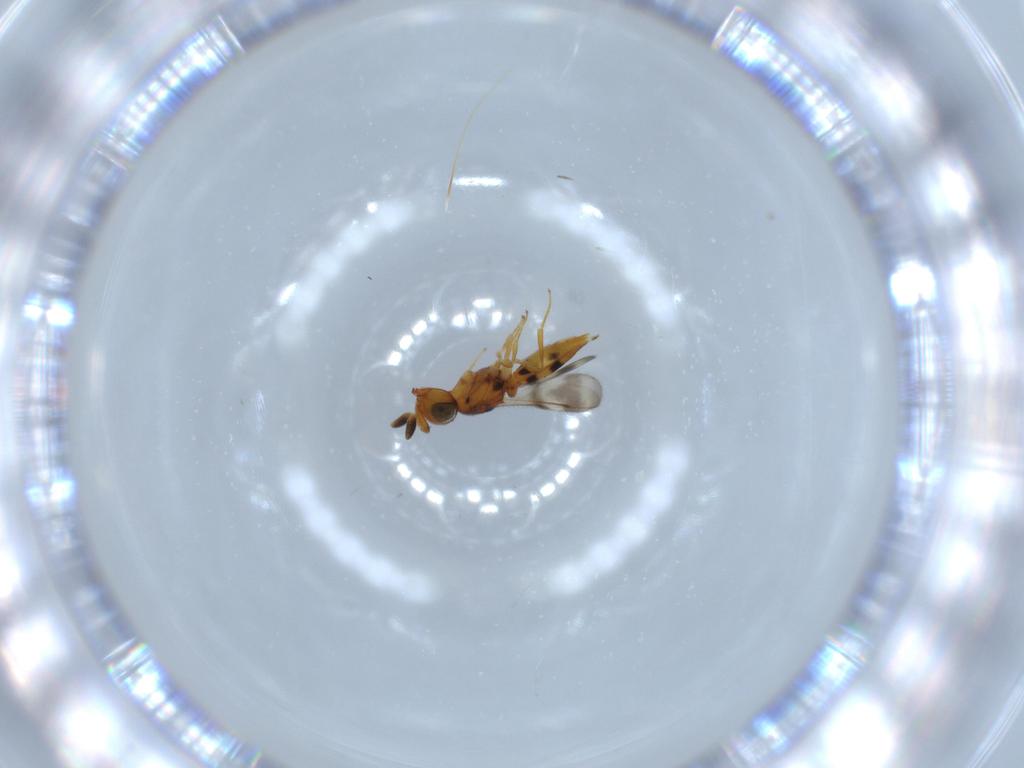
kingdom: Animalia
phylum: Arthropoda
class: Insecta
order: Hymenoptera
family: Scelionidae
